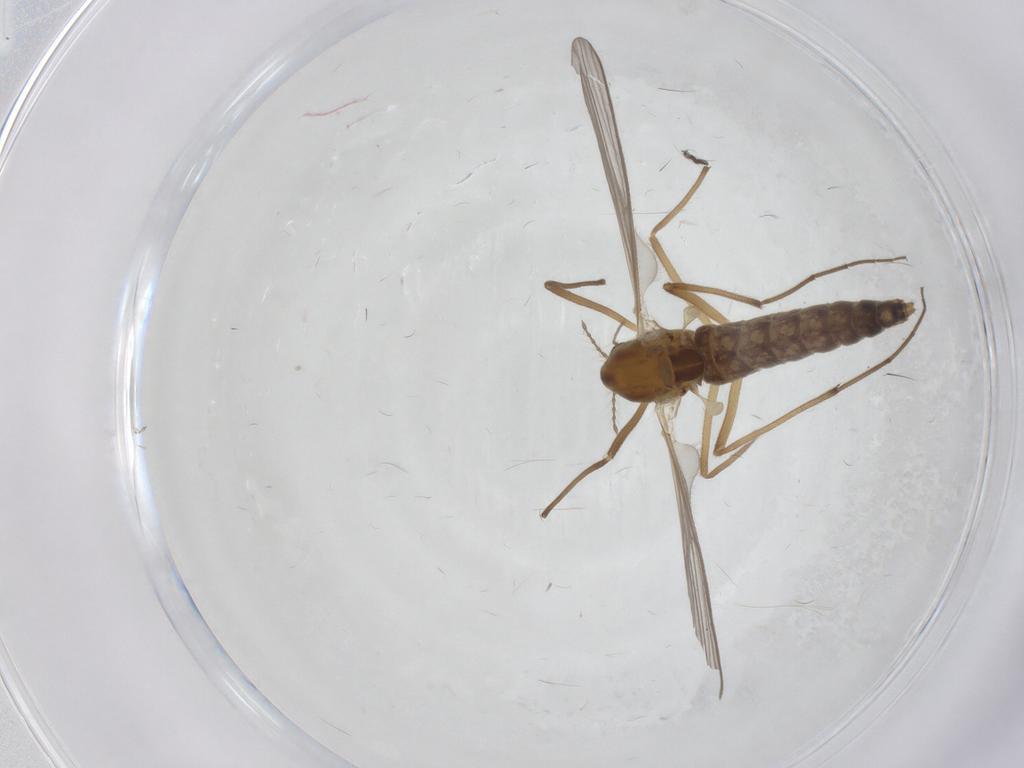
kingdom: Animalia
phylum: Arthropoda
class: Insecta
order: Diptera
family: Chironomidae
